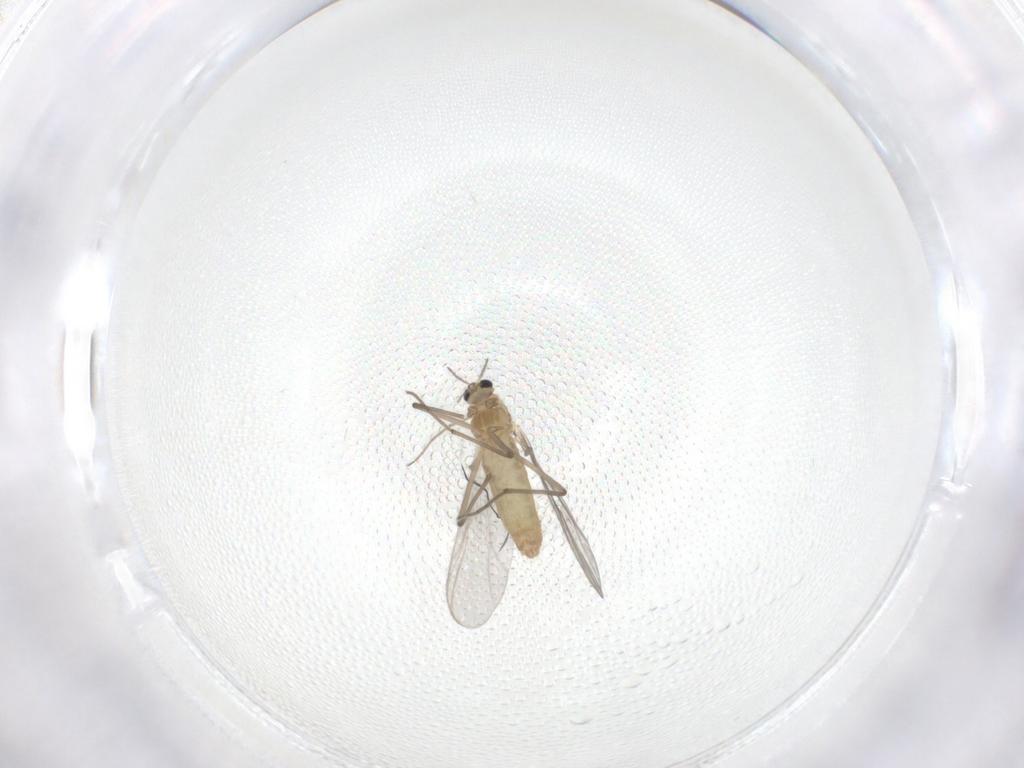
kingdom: Animalia
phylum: Arthropoda
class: Insecta
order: Diptera
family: Chironomidae
